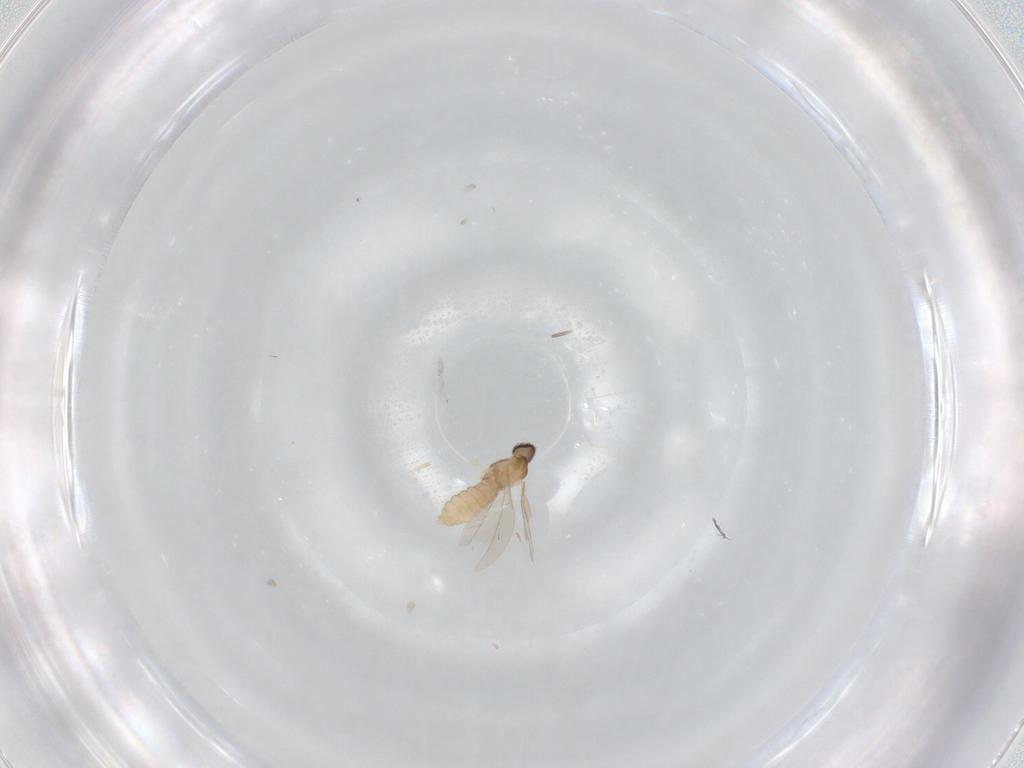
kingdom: Animalia
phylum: Arthropoda
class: Insecta
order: Diptera
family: Cecidomyiidae
